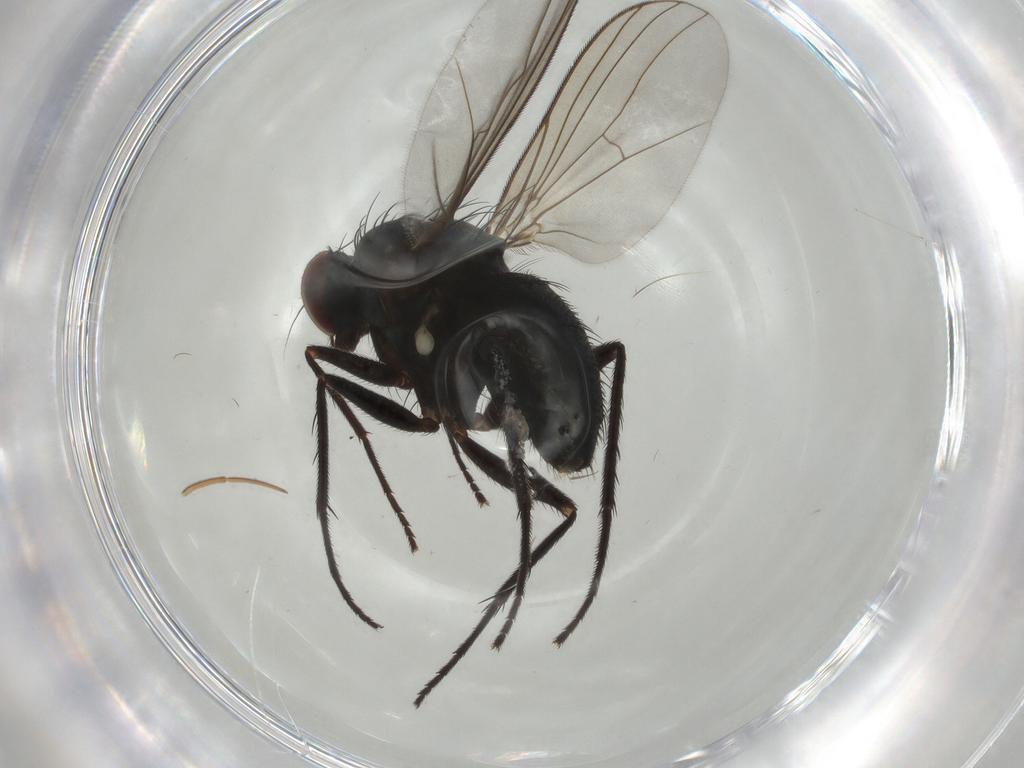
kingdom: Animalia
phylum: Arthropoda
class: Insecta
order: Diptera
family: Dolichopodidae
